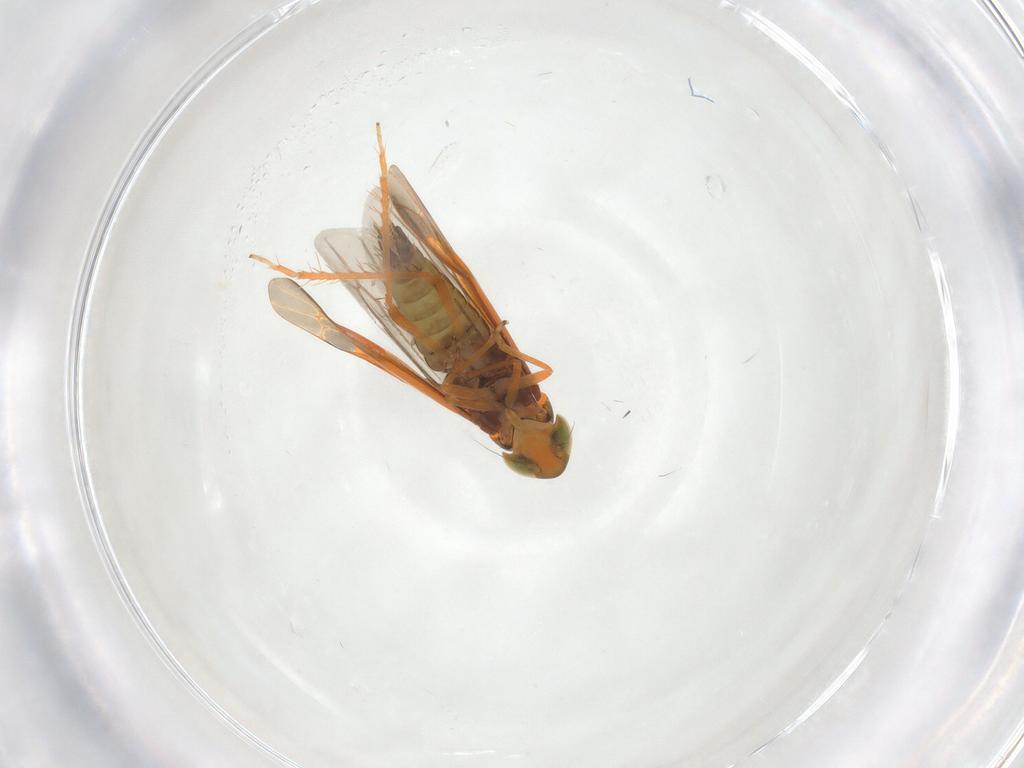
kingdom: Animalia
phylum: Arthropoda
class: Insecta
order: Hemiptera
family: Cicadellidae
